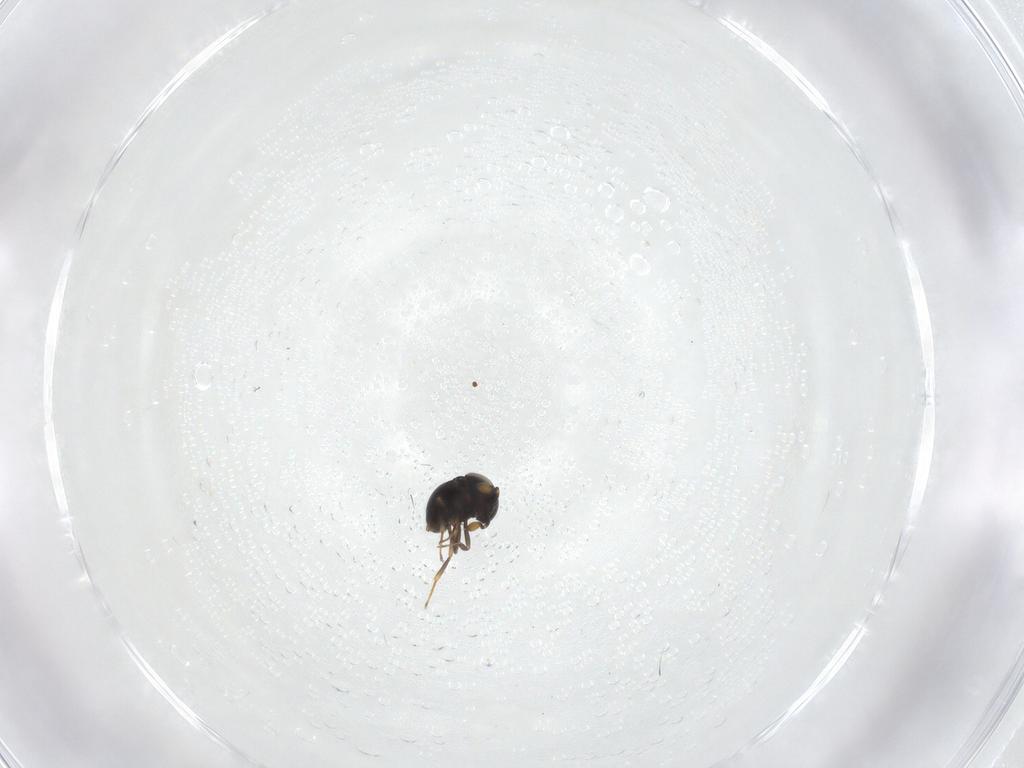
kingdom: Animalia
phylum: Arthropoda
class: Insecta
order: Hymenoptera
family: Scelionidae
